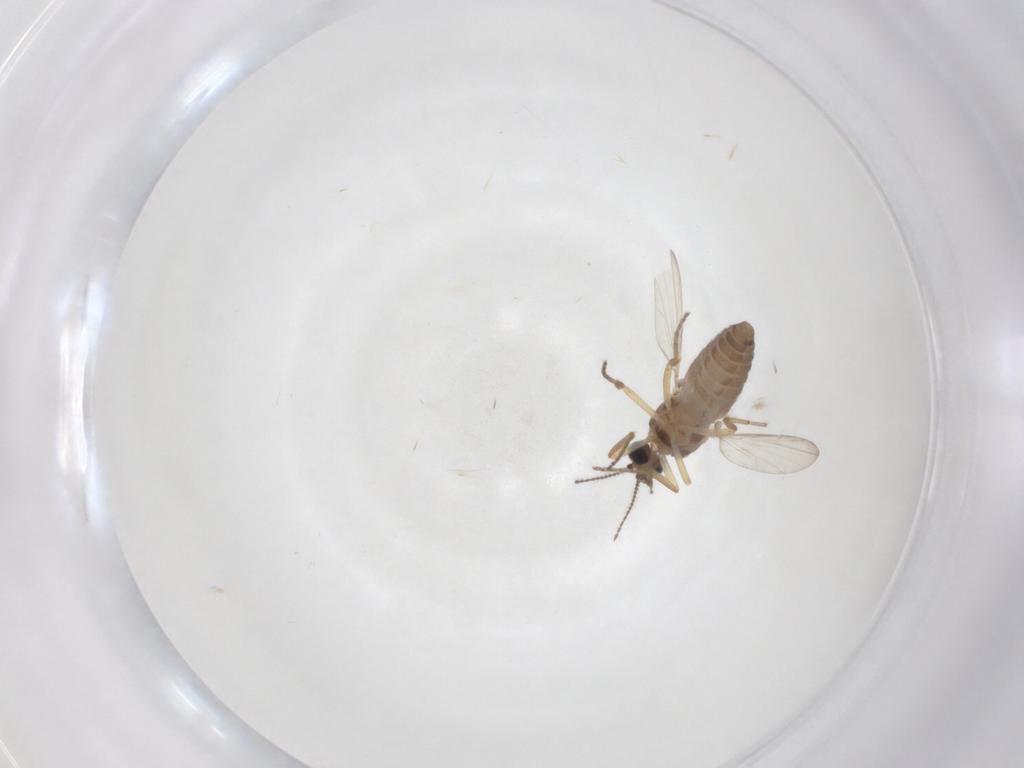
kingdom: Animalia
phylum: Arthropoda
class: Insecta
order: Diptera
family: Ceratopogonidae
